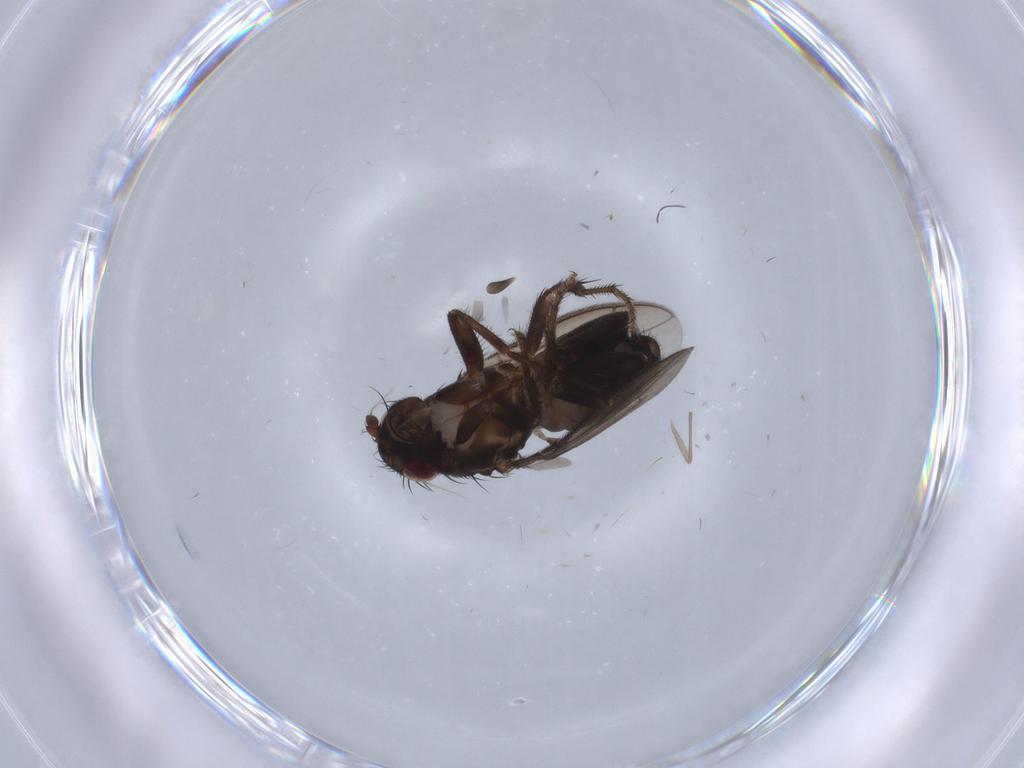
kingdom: Animalia
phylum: Arthropoda
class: Insecta
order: Diptera
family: Sphaeroceridae
